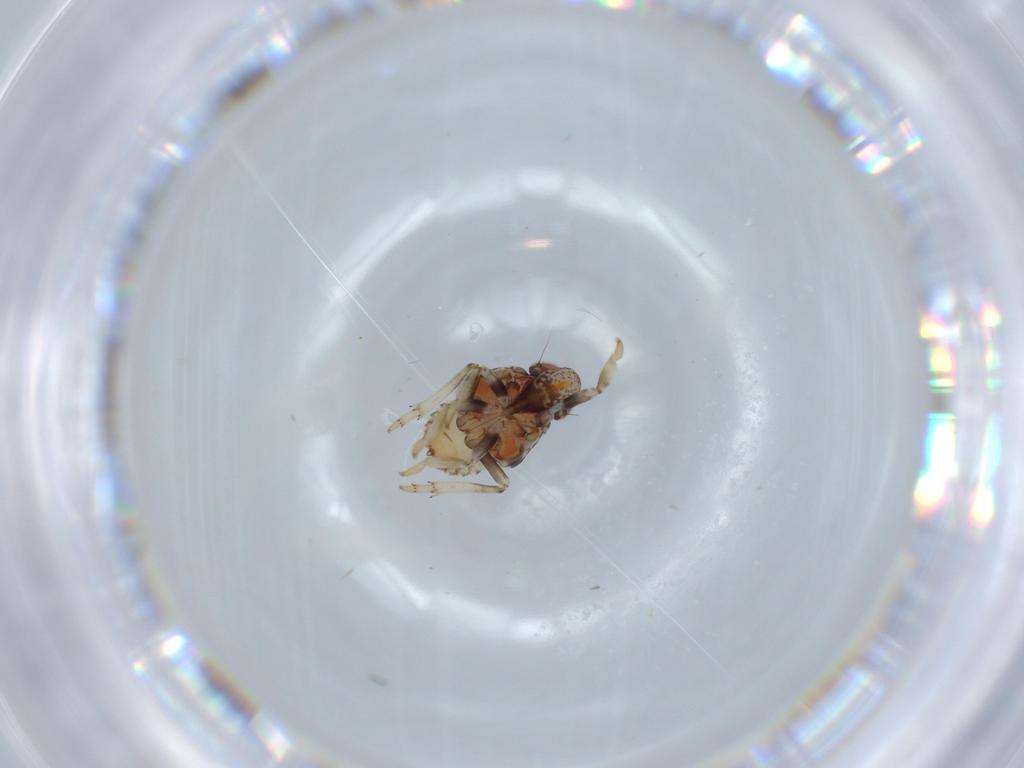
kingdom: Animalia
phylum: Arthropoda
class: Insecta
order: Hemiptera
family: Issidae
